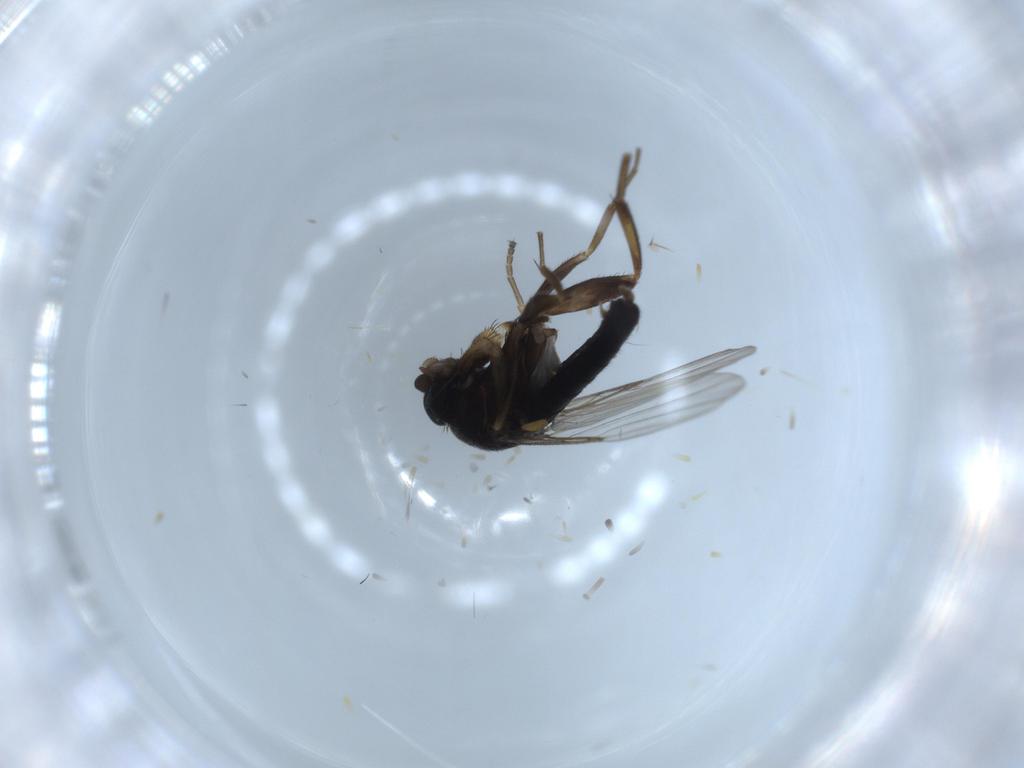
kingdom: Animalia
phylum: Arthropoda
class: Insecta
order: Diptera
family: Phoridae
